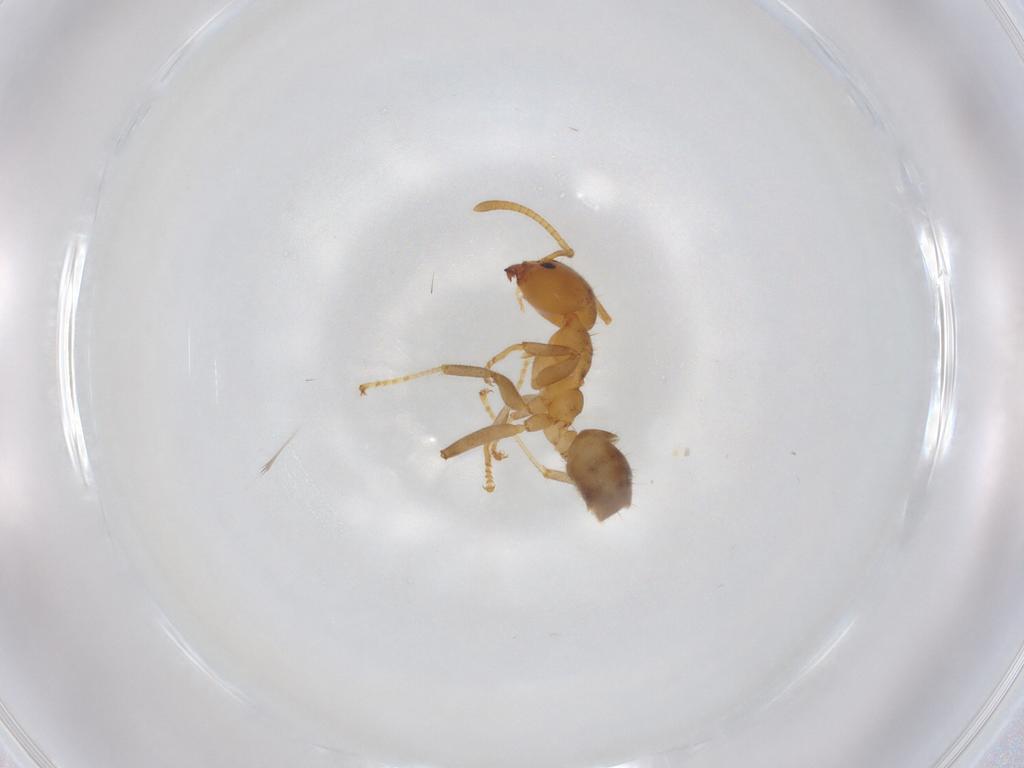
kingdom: Animalia
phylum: Arthropoda
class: Insecta
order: Hymenoptera
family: Formicidae
